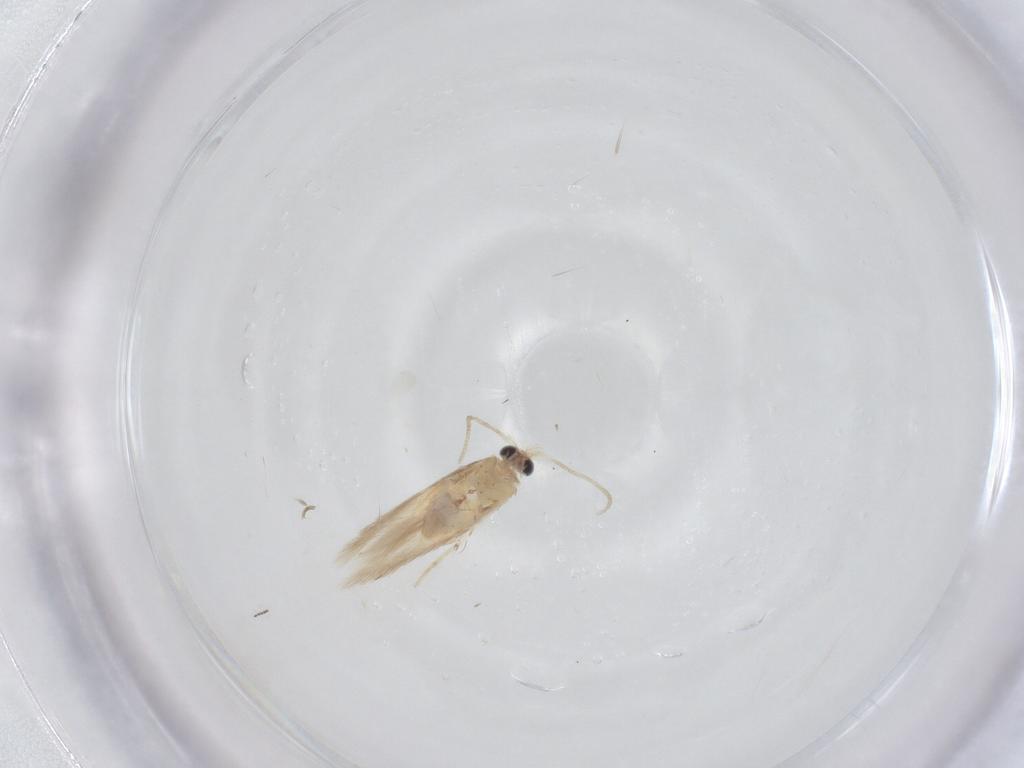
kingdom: Animalia
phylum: Arthropoda
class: Insecta
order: Lepidoptera
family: Nepticulidae
